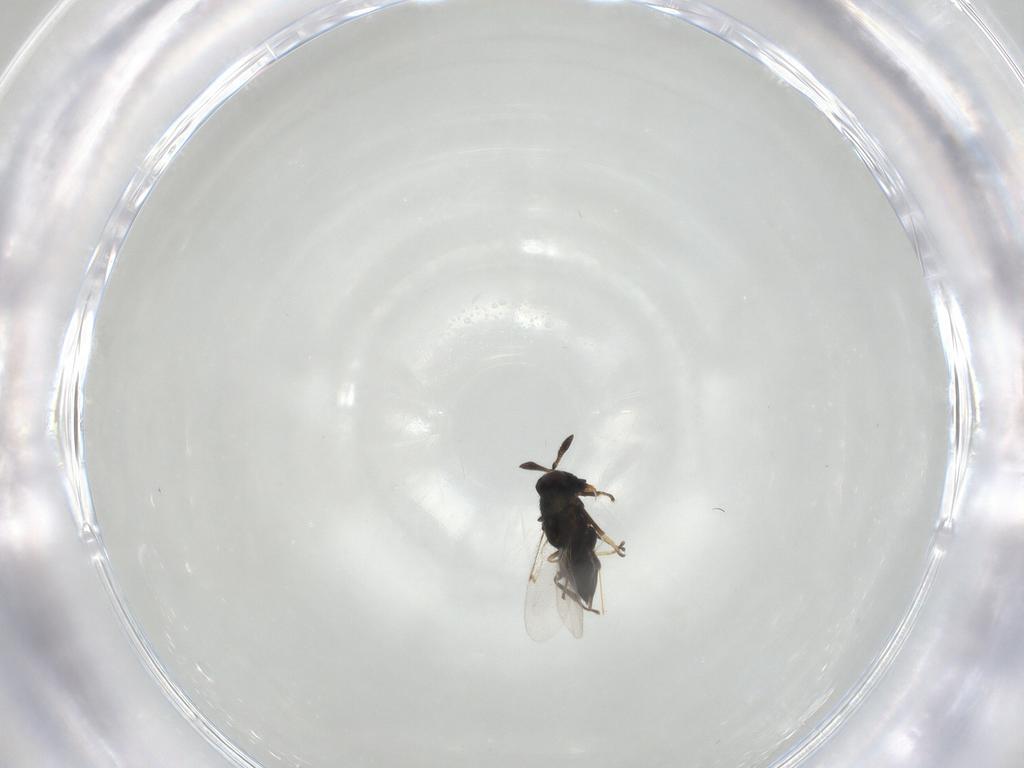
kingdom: Animalia
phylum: Arthropoda
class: Insecta
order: Hymenoptera
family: Encyrtidae
